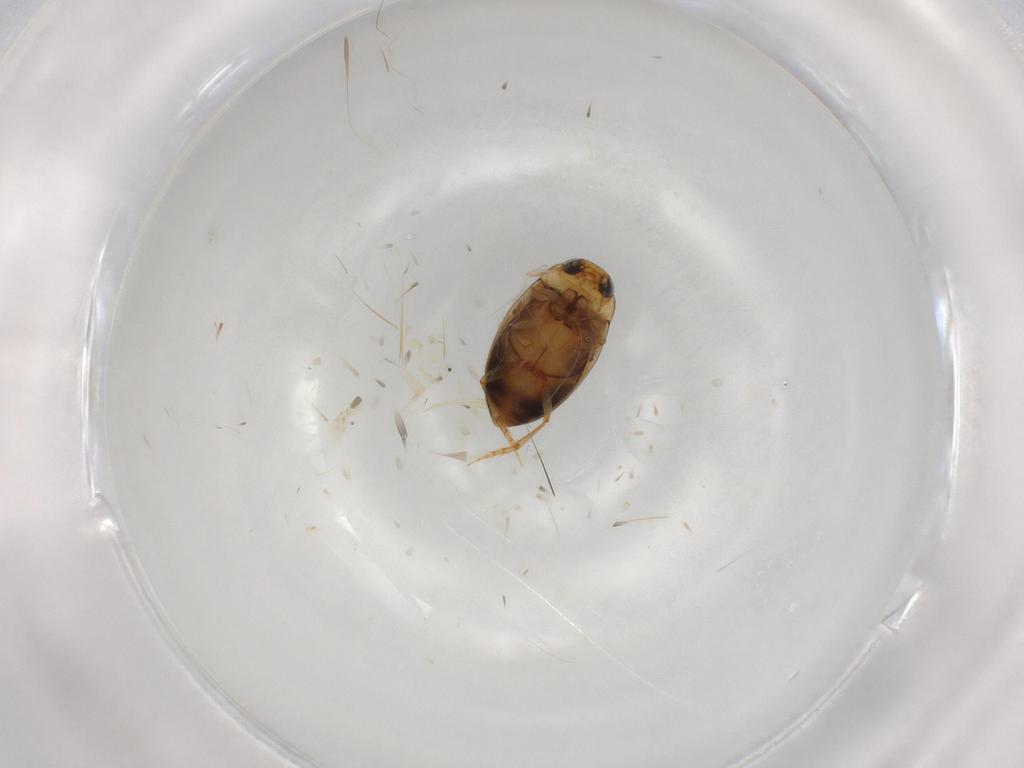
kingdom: Animalia
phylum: Arthropoda
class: Insecta
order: Coleoptera
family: Dytiscidae
